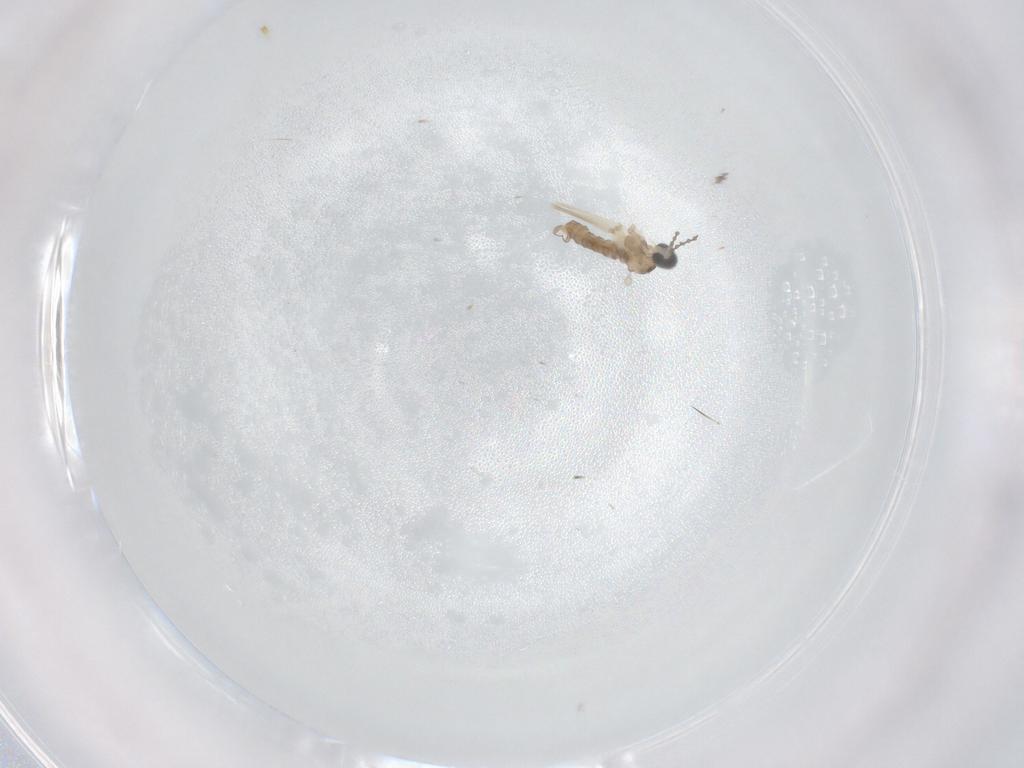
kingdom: Animalia
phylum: Arthropoda
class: Insecta
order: Diptera
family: Cecidomyiidae
